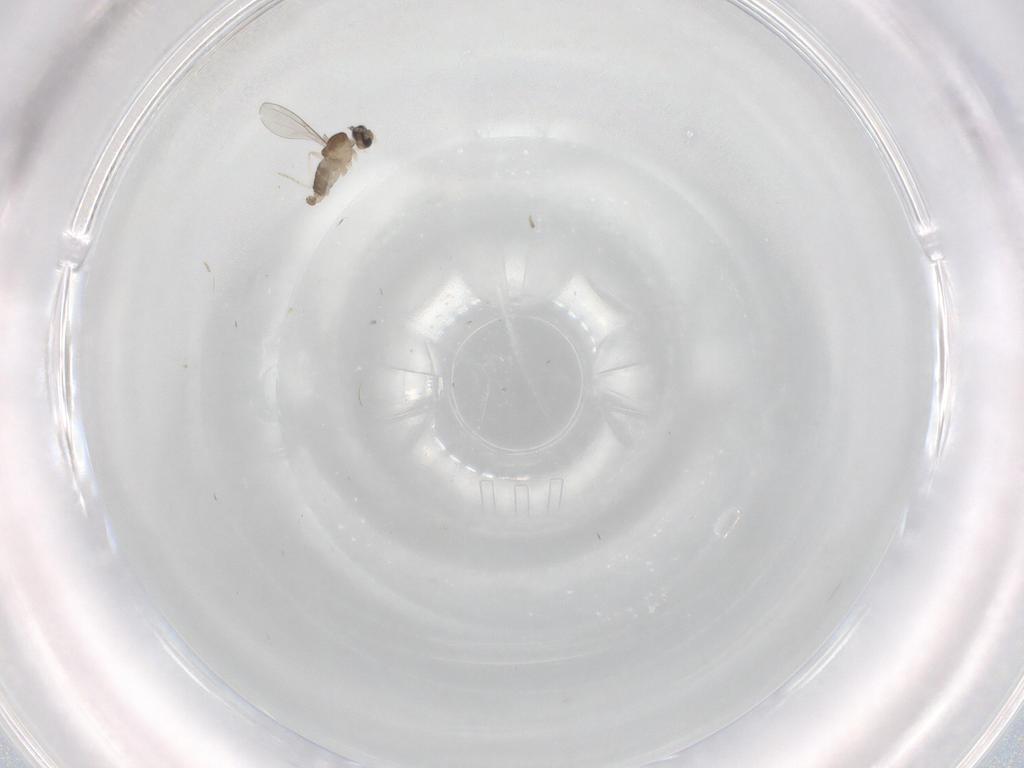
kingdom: Animalia
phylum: Arthropoda
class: Insecta
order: Diptera
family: Cecidomyiidae
